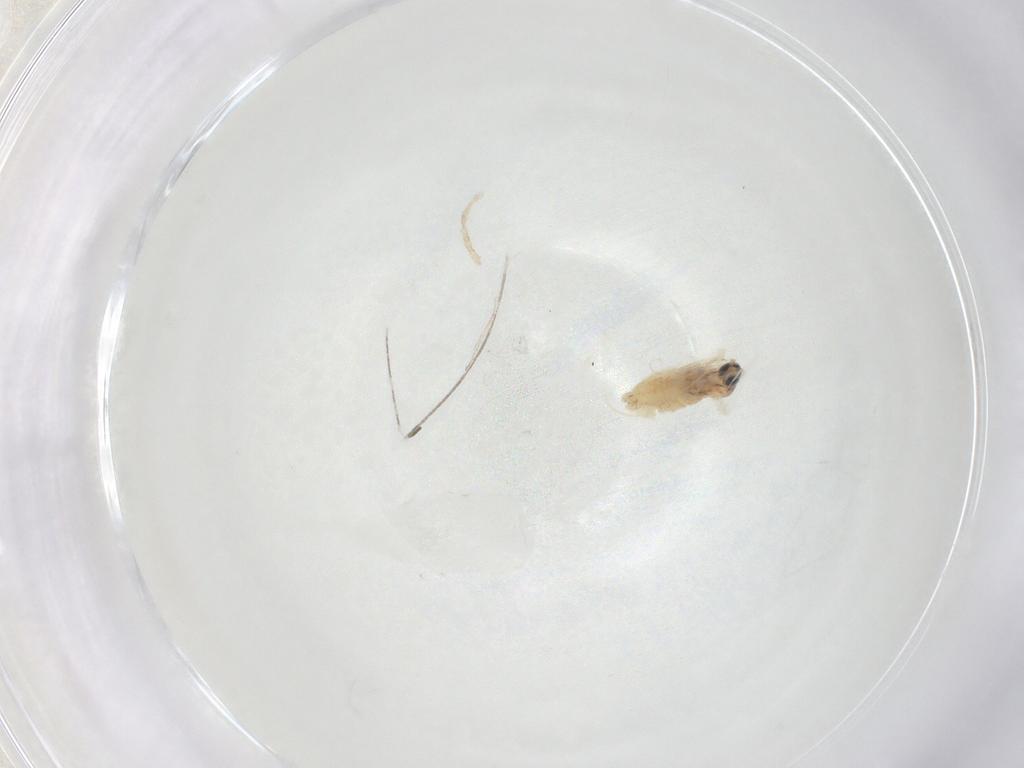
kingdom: Animalia
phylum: Arthropoda
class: Insecta
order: Diptera
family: Cecidomyiidae
